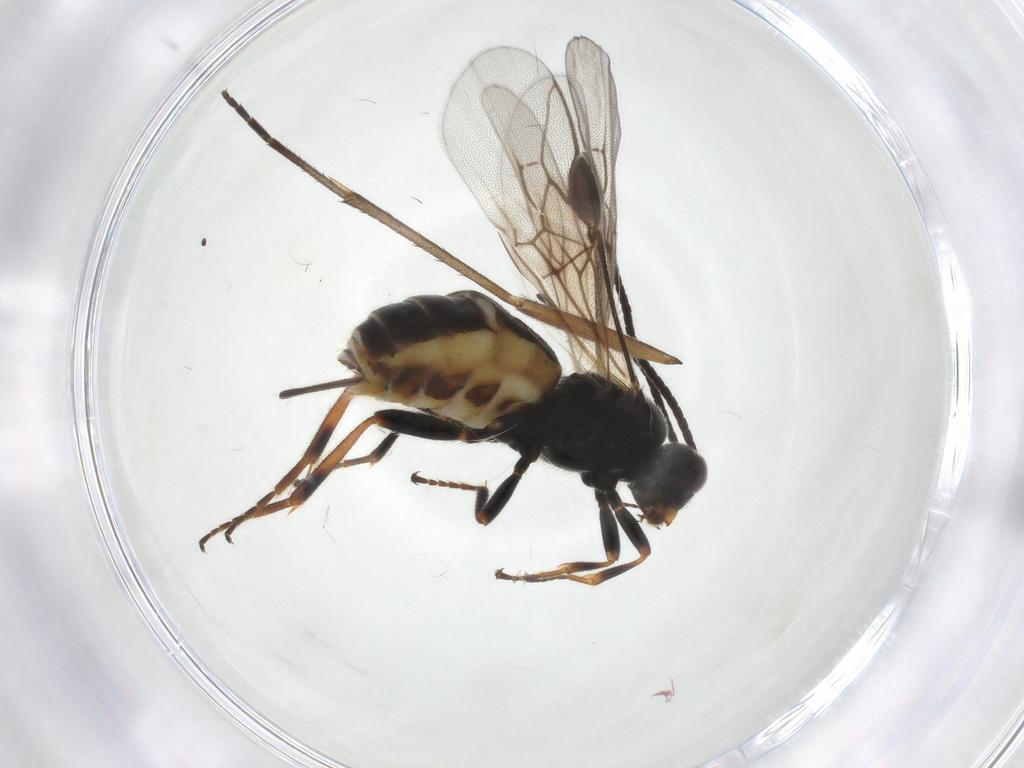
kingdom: Animalia
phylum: Arthropoda
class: Insecta
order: Hymenoptera
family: Braconidae
